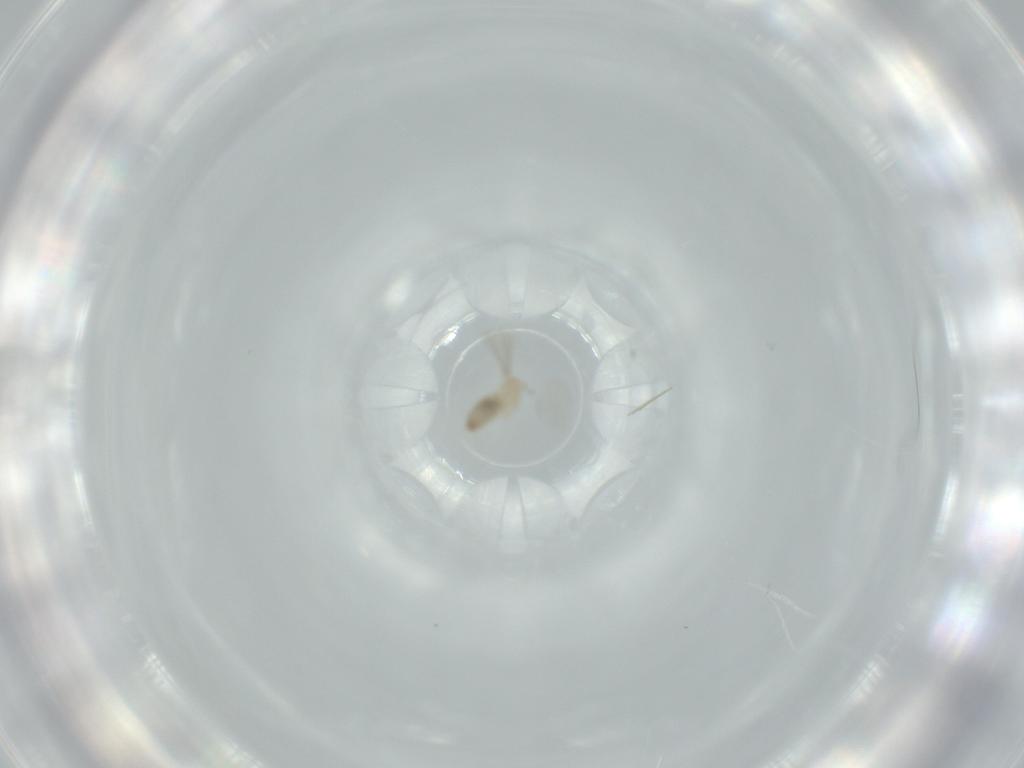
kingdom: Animalia
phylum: Arthropoda
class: Insecta
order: Diptera
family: Cecidomyiidae
